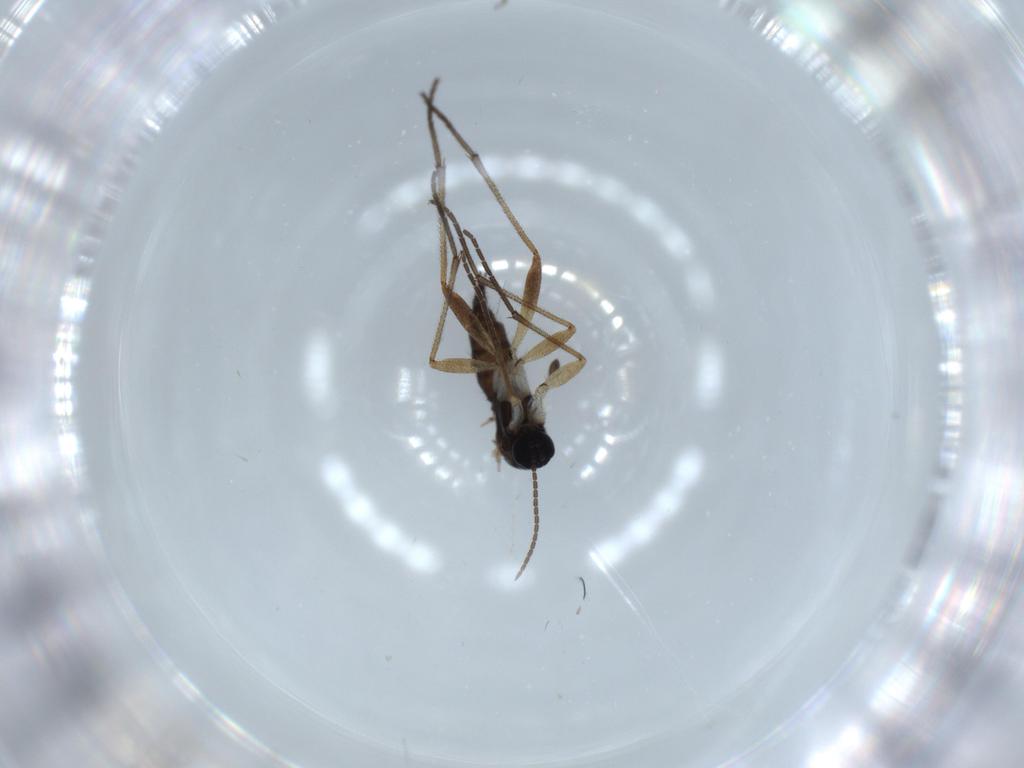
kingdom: Animalia
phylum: Arthropoda
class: Insecta
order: Diptera
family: Sciaridae
